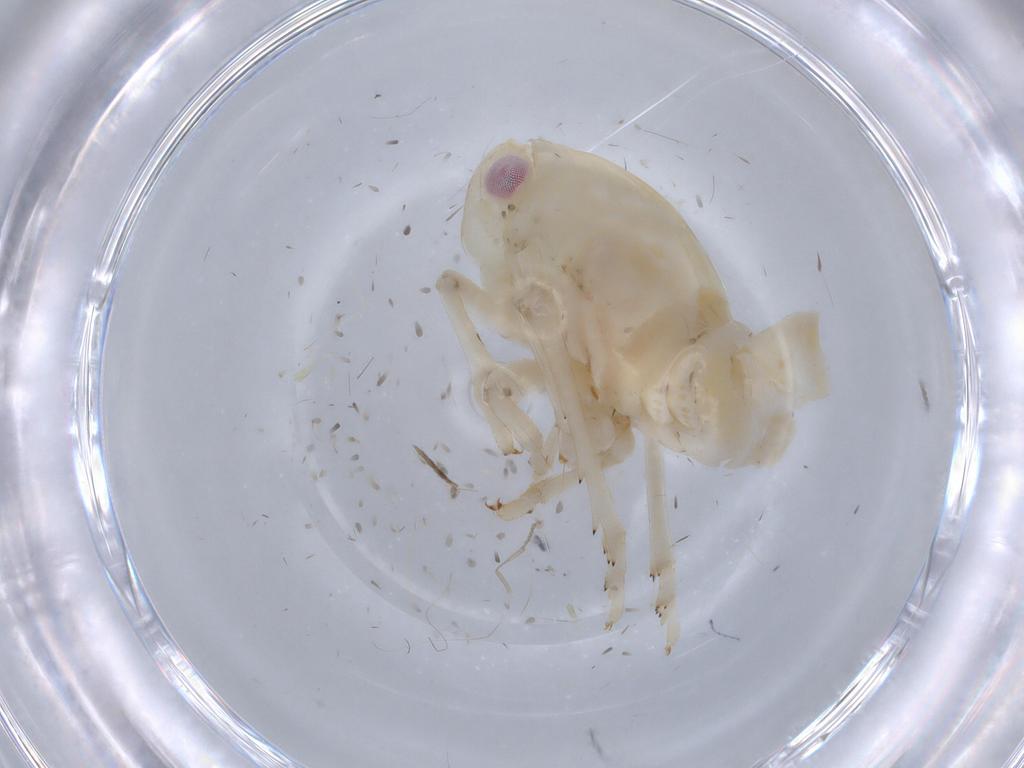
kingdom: Animalia
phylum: Arthropoda
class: Insecta
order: Hemiptera
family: Ricaniidae
